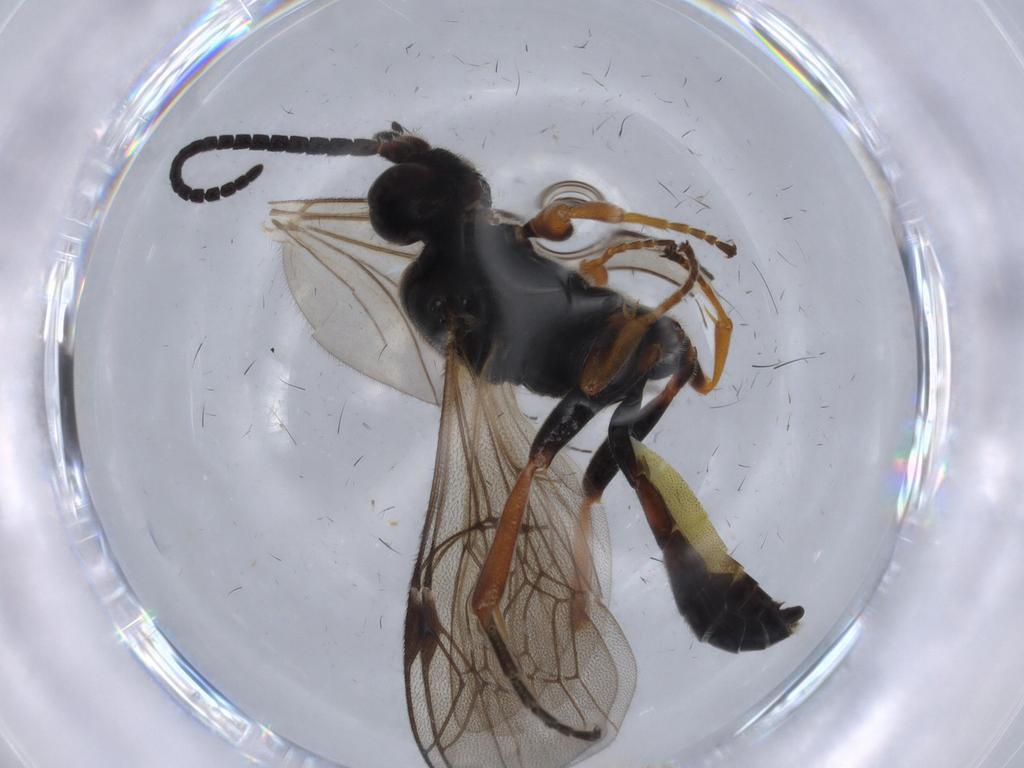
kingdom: Animalia
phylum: Arthropoda
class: Insecta
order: Hymenoptera
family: Ichneumonidae
